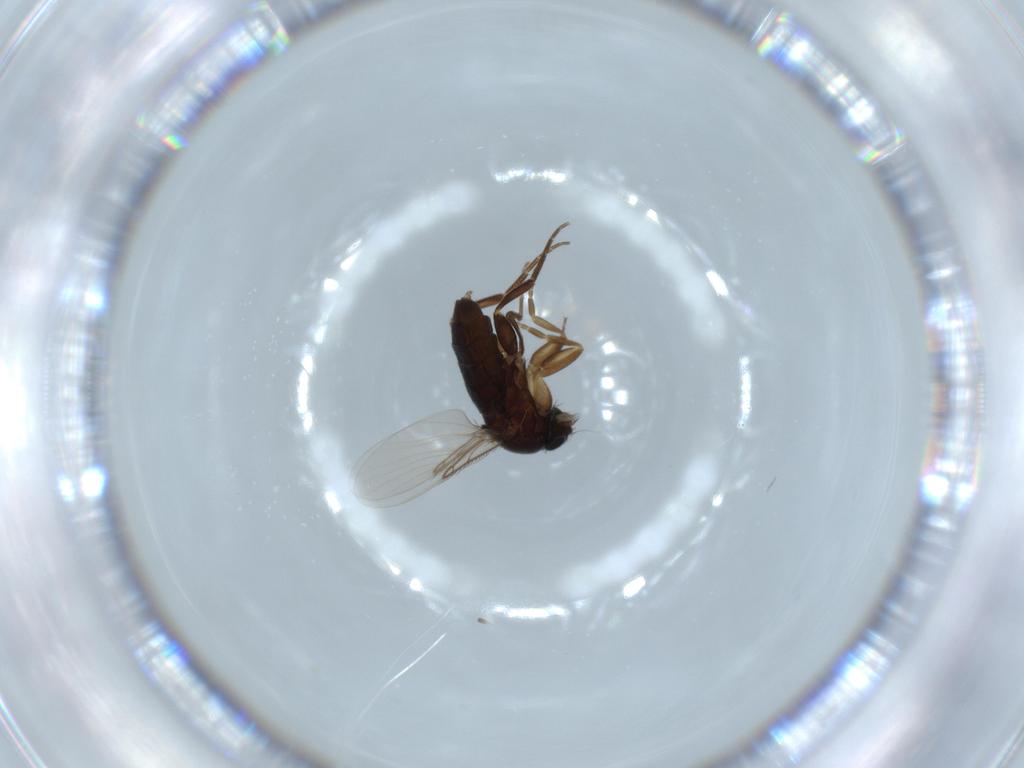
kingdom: Animalia
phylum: Arthropoda
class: Insecta
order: Diptera
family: Phoridae
